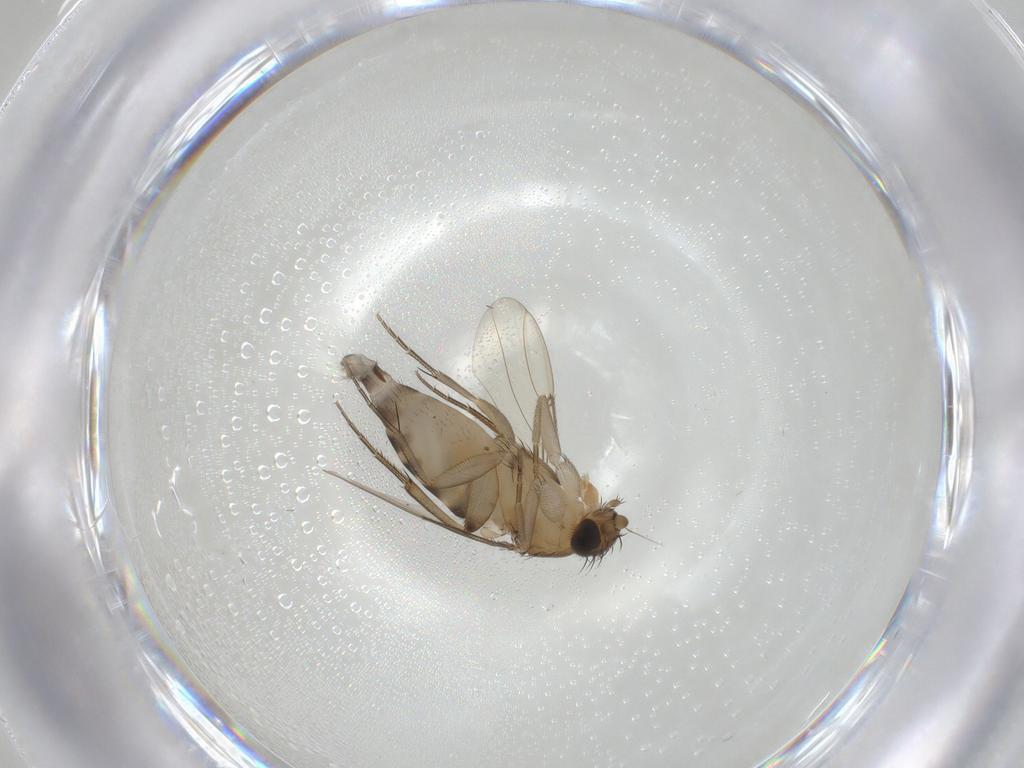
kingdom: Animalia
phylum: Arthropoda
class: Insecta
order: Diptera
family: Phoridae
